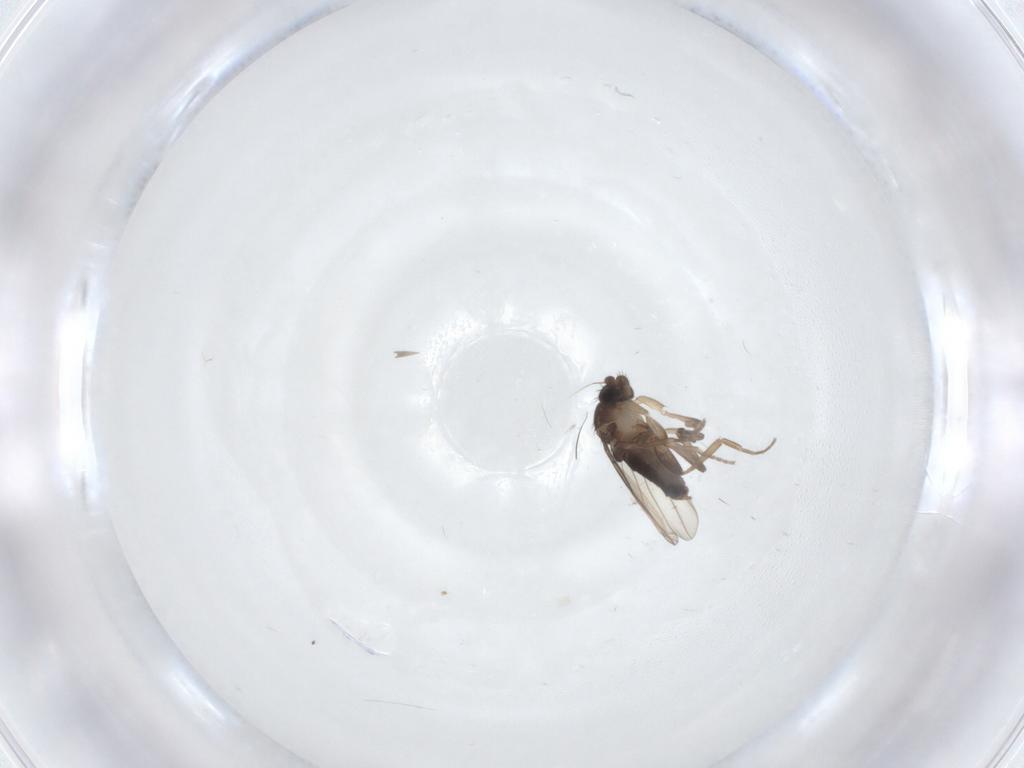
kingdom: Animalia
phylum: Arthropoda
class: Insecta
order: Diptera
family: Phoridae
